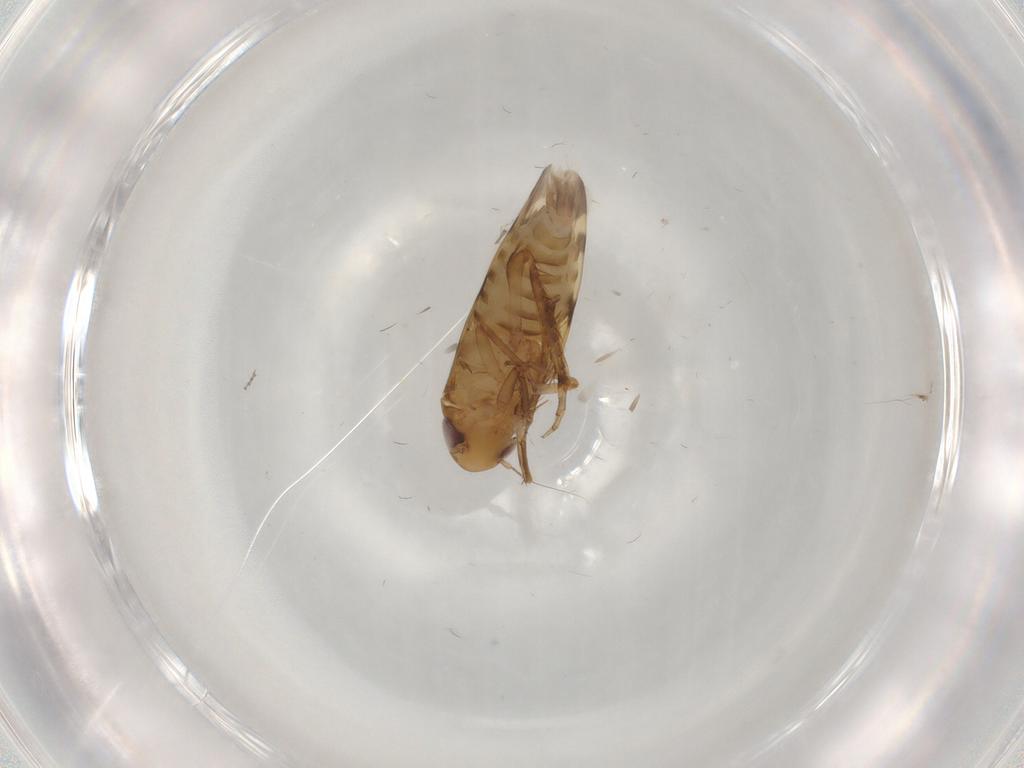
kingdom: Animalia
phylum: Arthropoda
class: Insecta
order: Hemiptera
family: Cicadellidae
